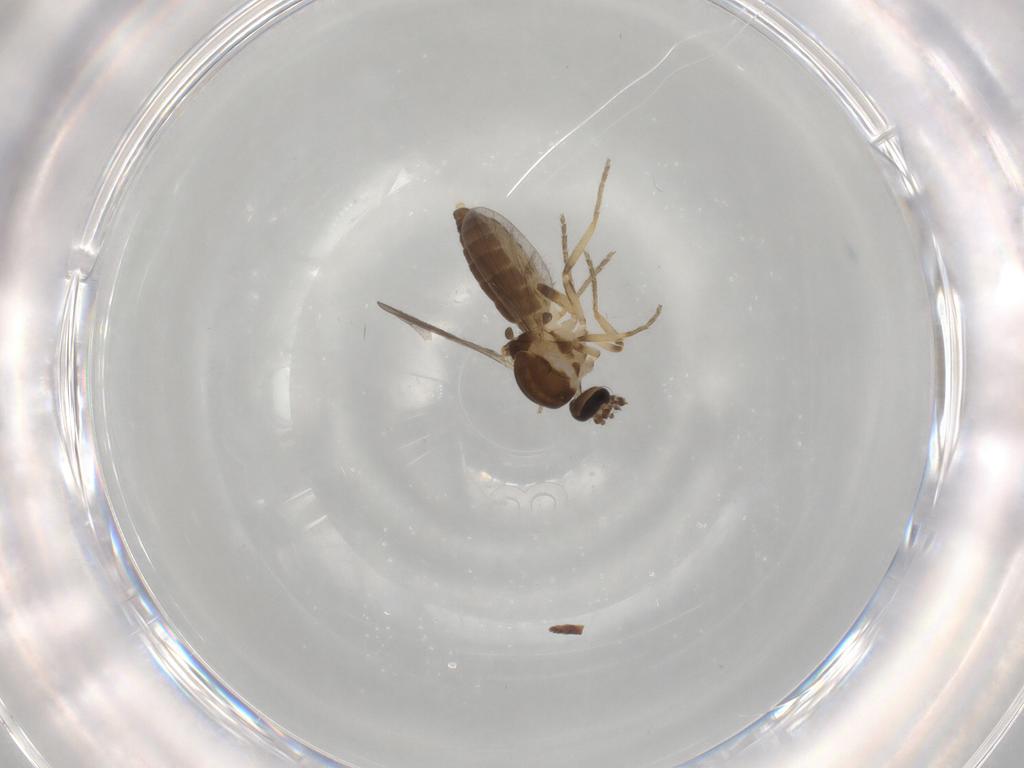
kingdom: Animalia
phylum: Arthropoda
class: Insecta
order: Diptera
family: Ceratopogonidae
